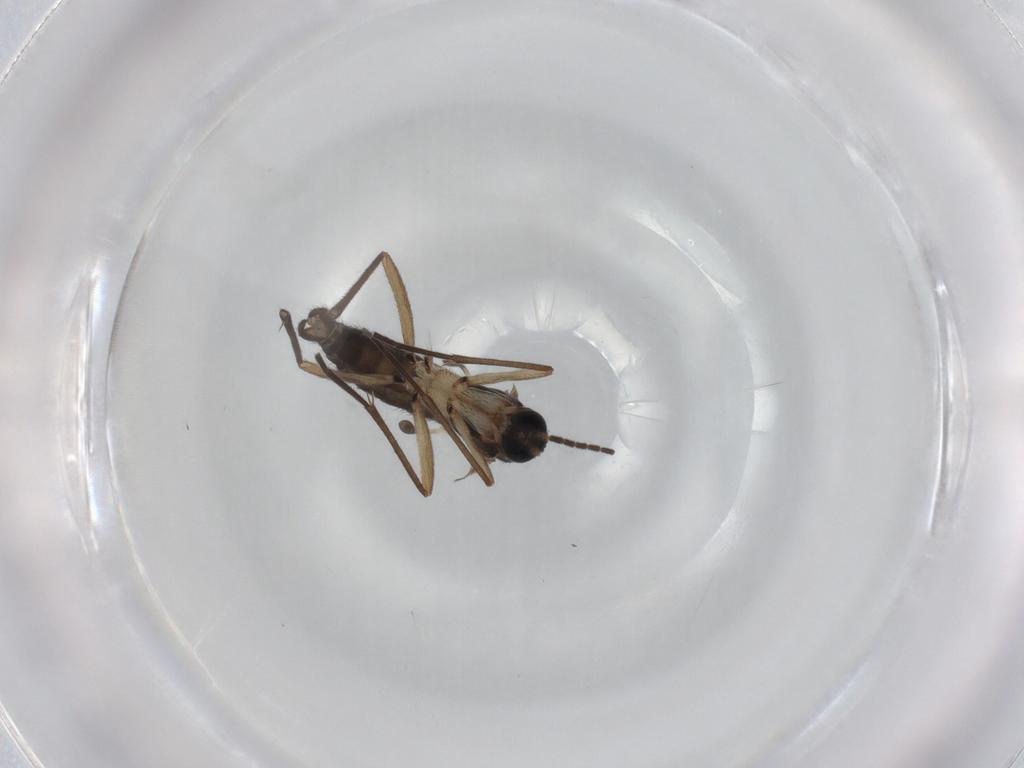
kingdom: Animalia
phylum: Arthropoda
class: Insecta
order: Diptera
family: Sciaridae
